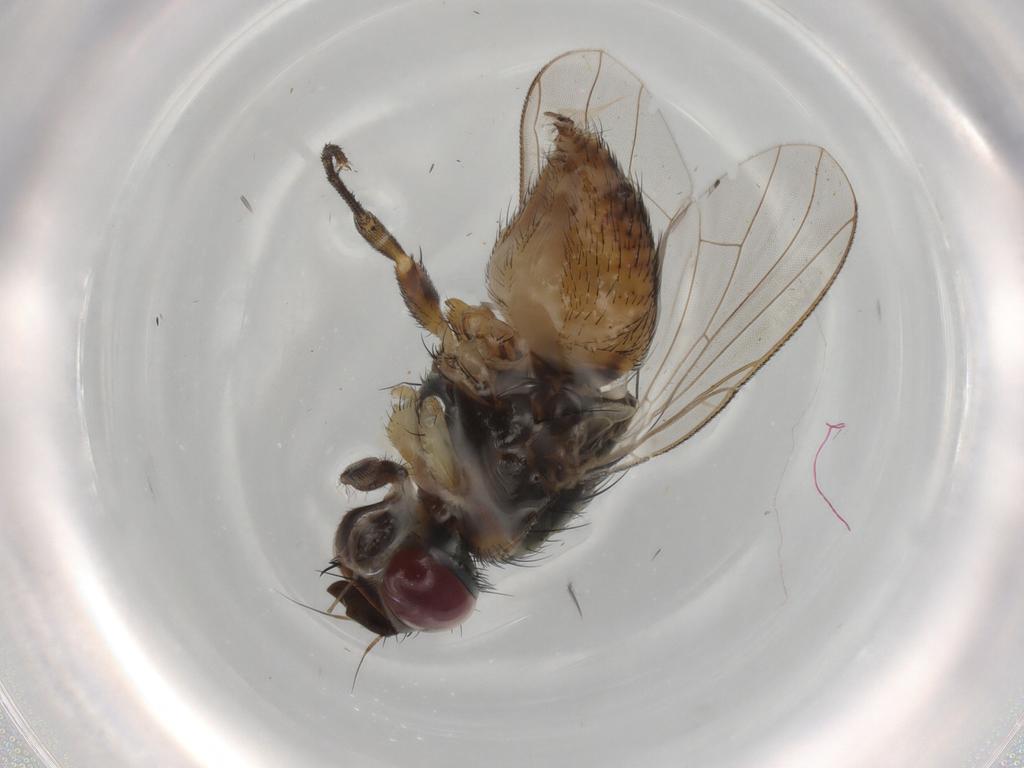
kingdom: Animalia
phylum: Arthropoda
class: Insecta
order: Diptera
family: Cecidomyiidae
